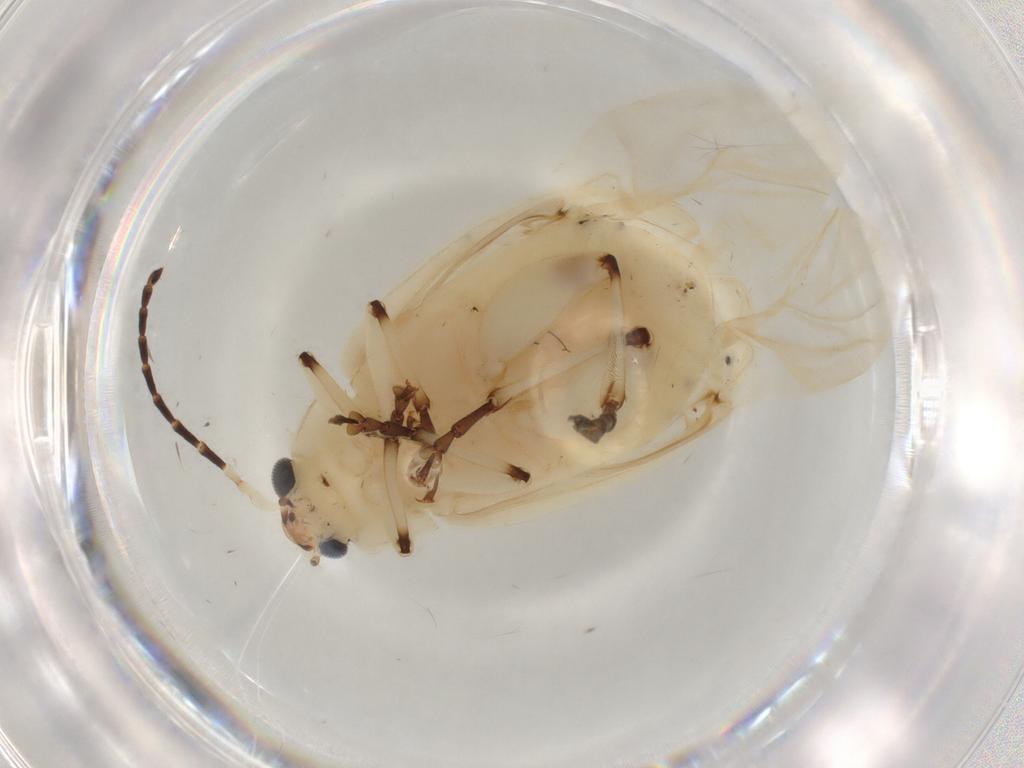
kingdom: Animalia
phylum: Arthropoda
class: Insecta
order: Coleoptera
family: Chrysomelidae
